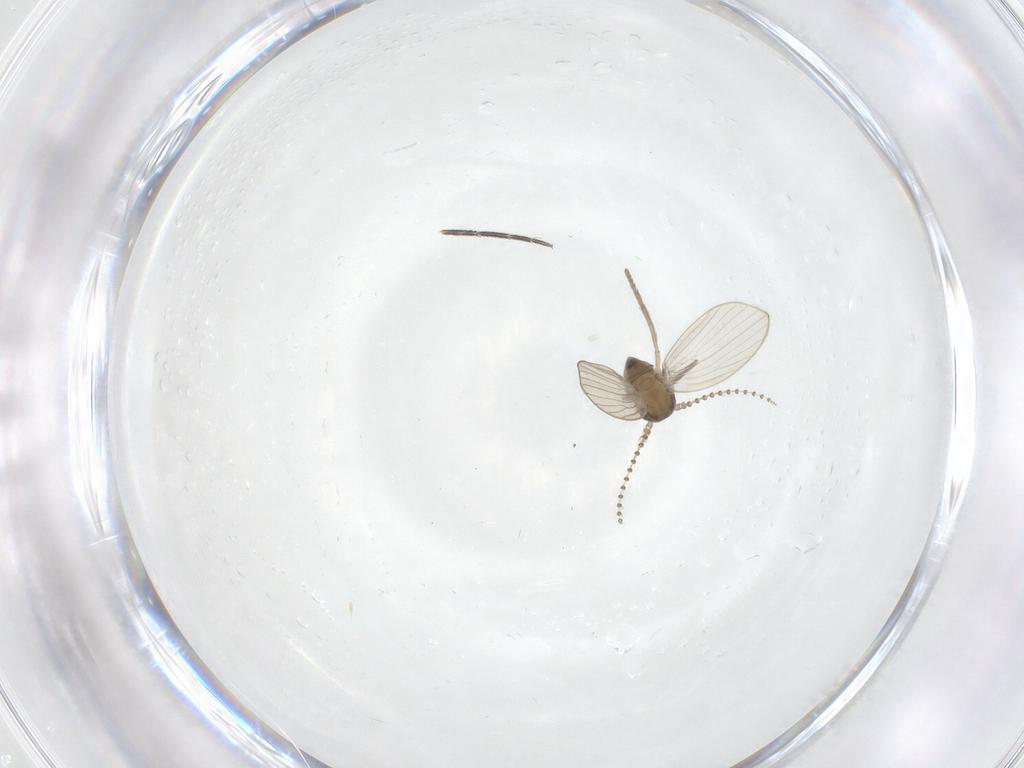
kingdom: Animalia
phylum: Arthropoda
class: Insecta
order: Diptera
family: Psychodidae
